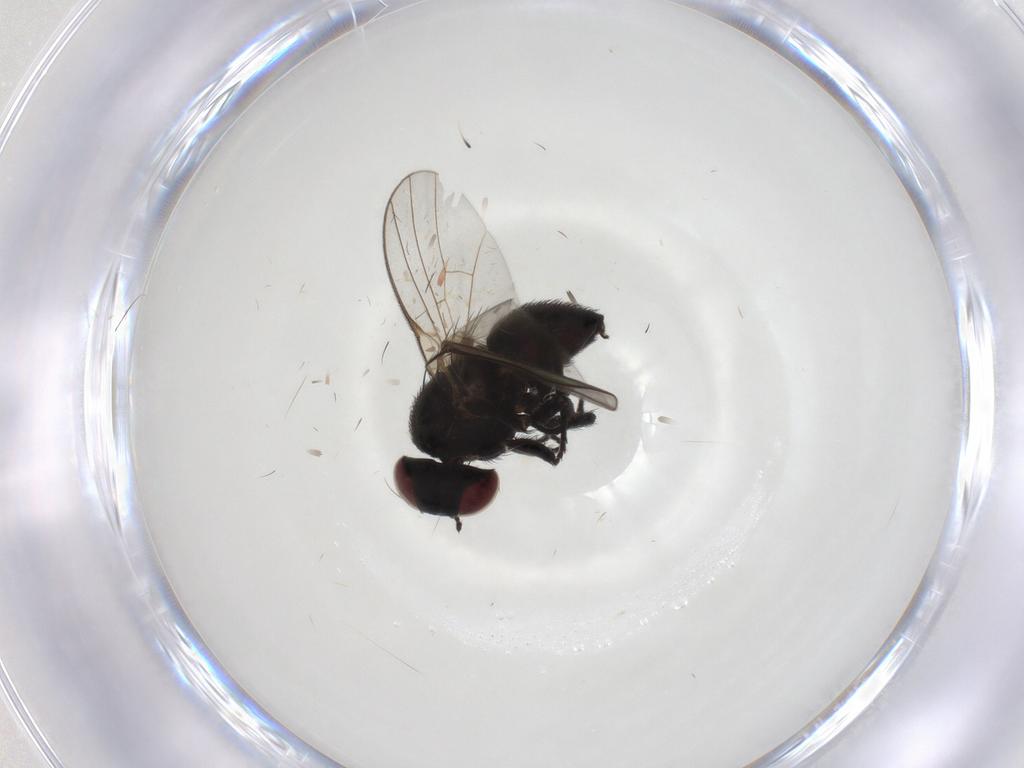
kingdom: Animalia
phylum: Arthropoda
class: Insecta
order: Diptera
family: Agromyzidae
